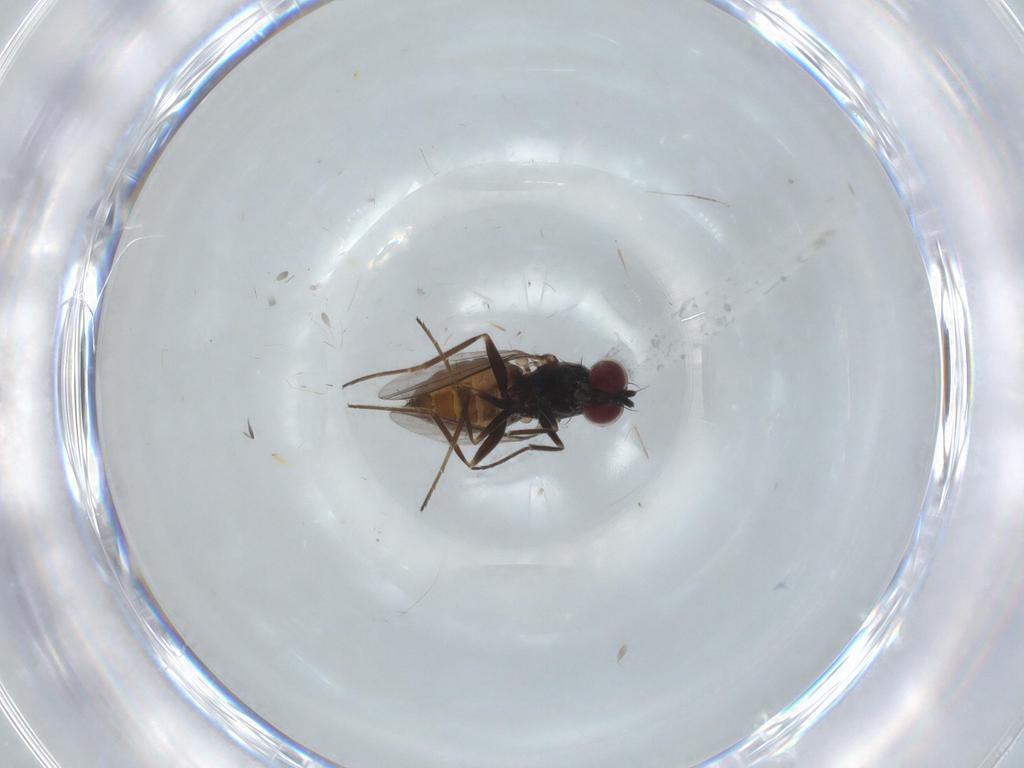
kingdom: Animalia
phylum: Arthropoda
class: Insecta
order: Diptera
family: Dolichopodidae
